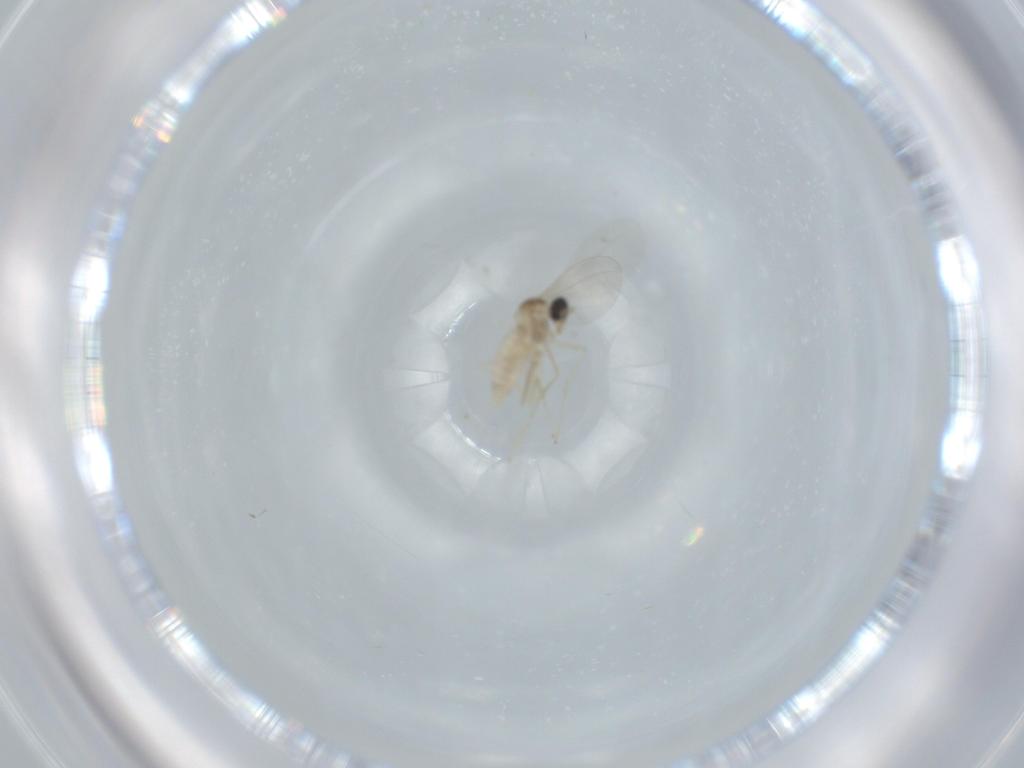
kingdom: Animalia
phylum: Arthropoda
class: Insecta
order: Diptera
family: Cecidomyiidae
